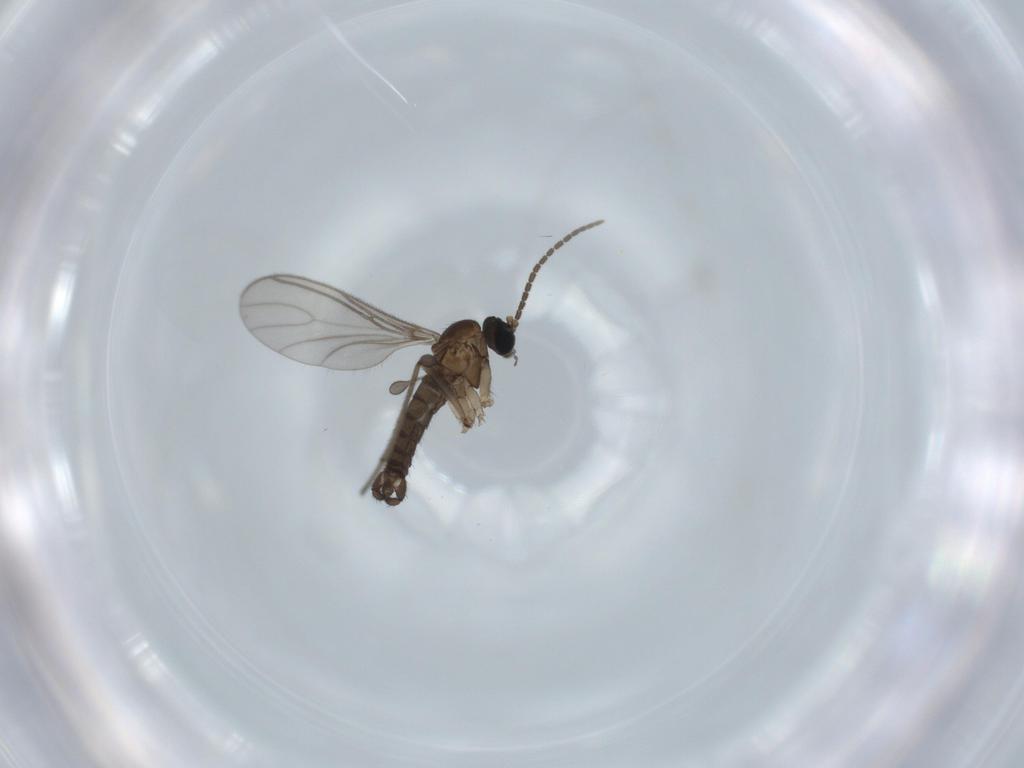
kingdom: Animalia
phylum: Arthropoda
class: Insecta
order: Diptera
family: Sciaridae
